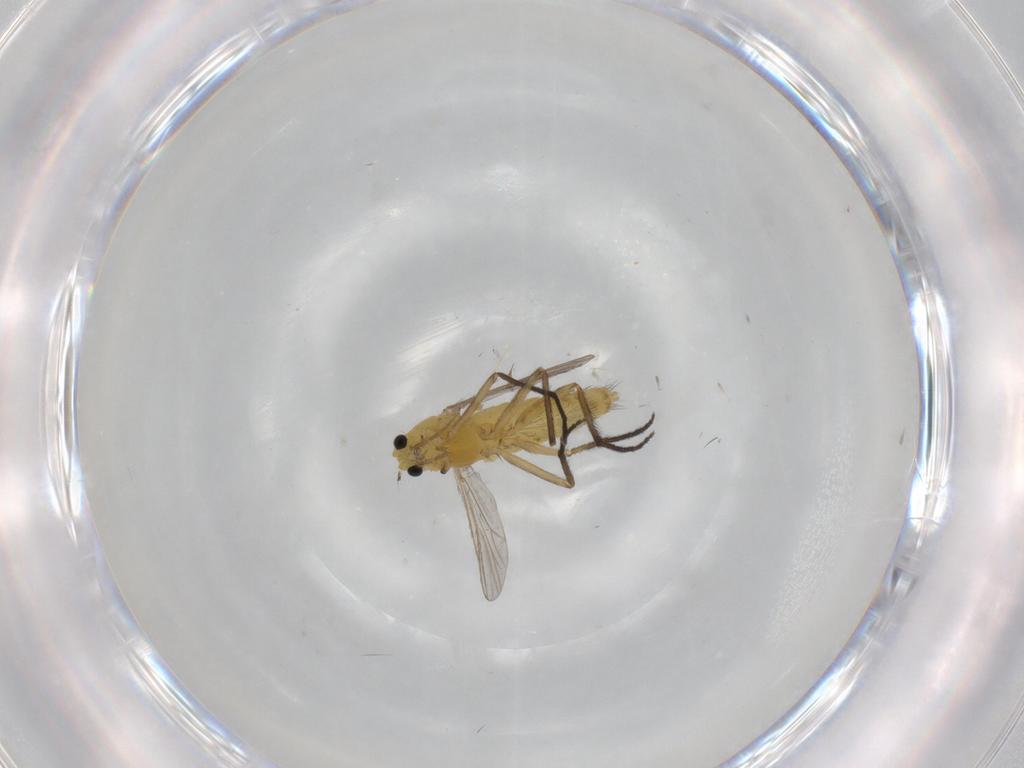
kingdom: Animalia
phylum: Arthropoda
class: Insecta
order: Diptera
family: Chironomidae
